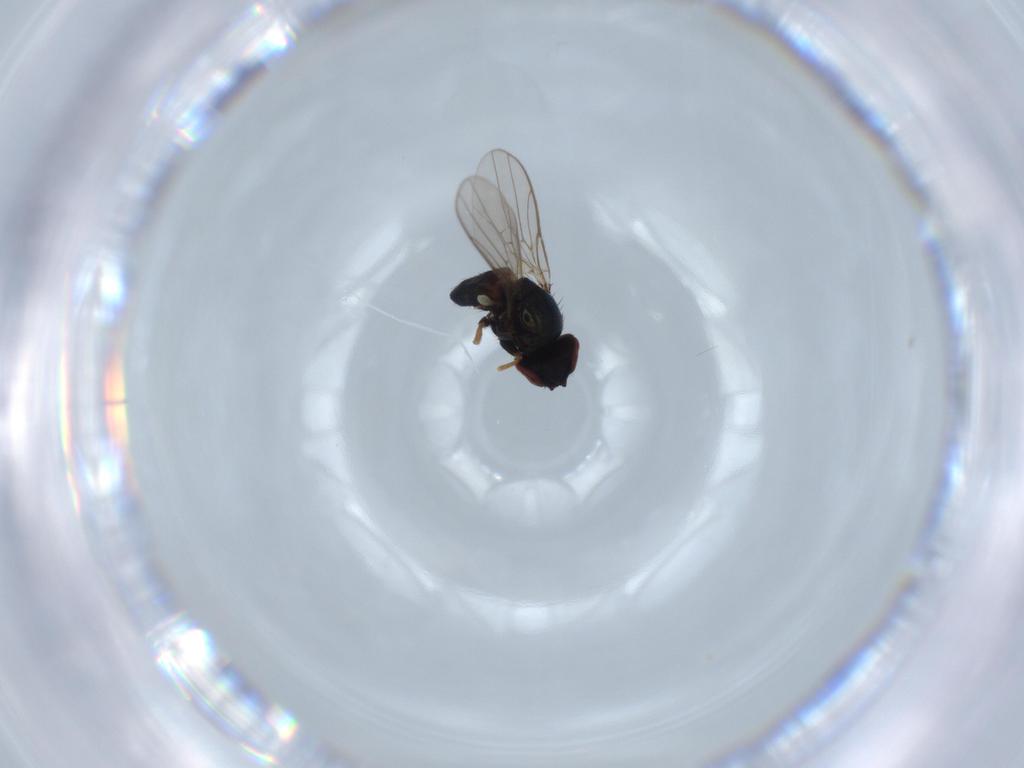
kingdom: Animalia
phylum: Arthropoda
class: Insecta
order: Diptera
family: Chloropidae
